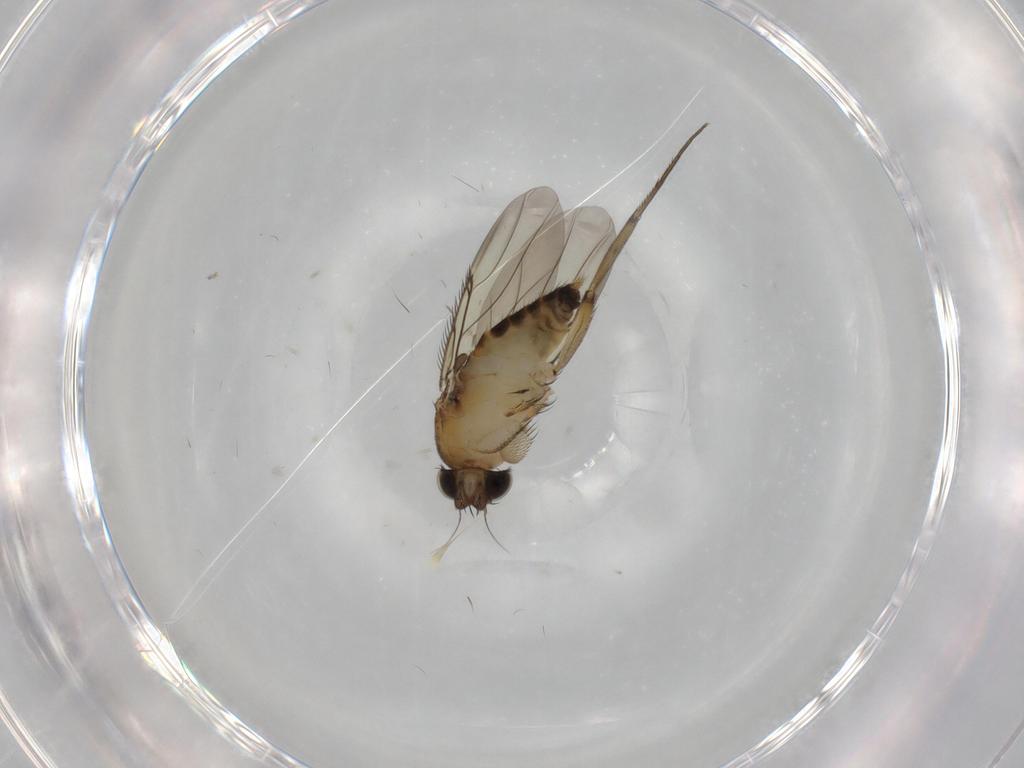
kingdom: Animalia
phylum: Arthropoda
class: Insecta
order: Diptera
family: Phoridae
